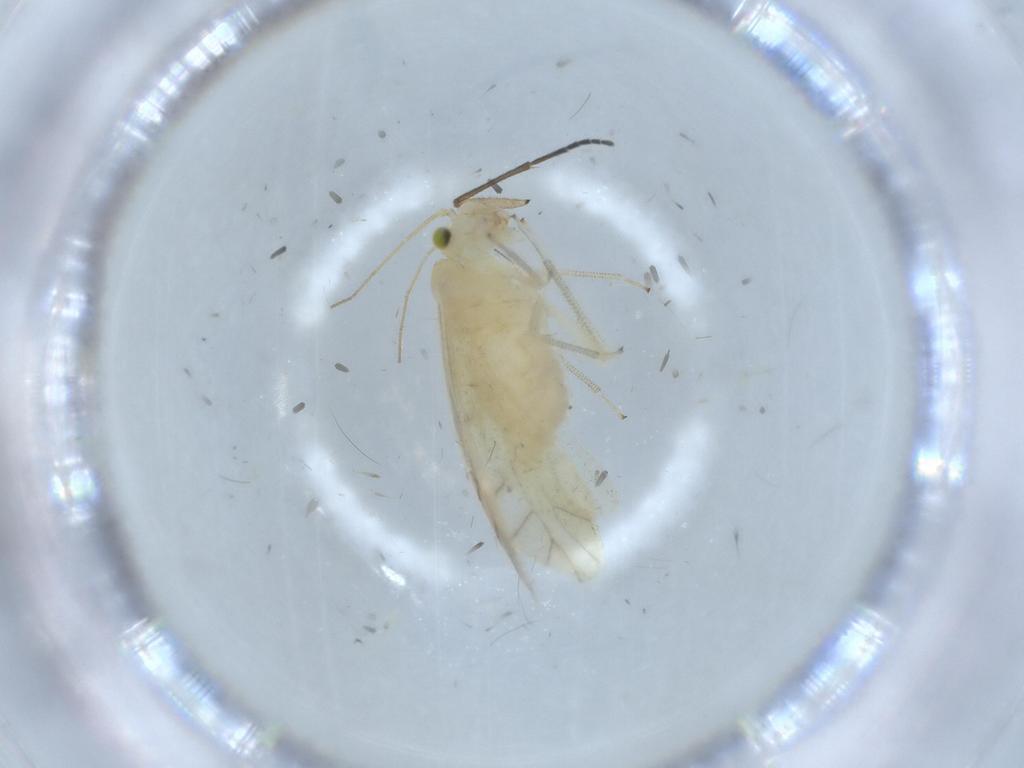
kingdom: Animalia
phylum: Arthropoda
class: Insecta
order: Psocodea
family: Caeciliusidae
